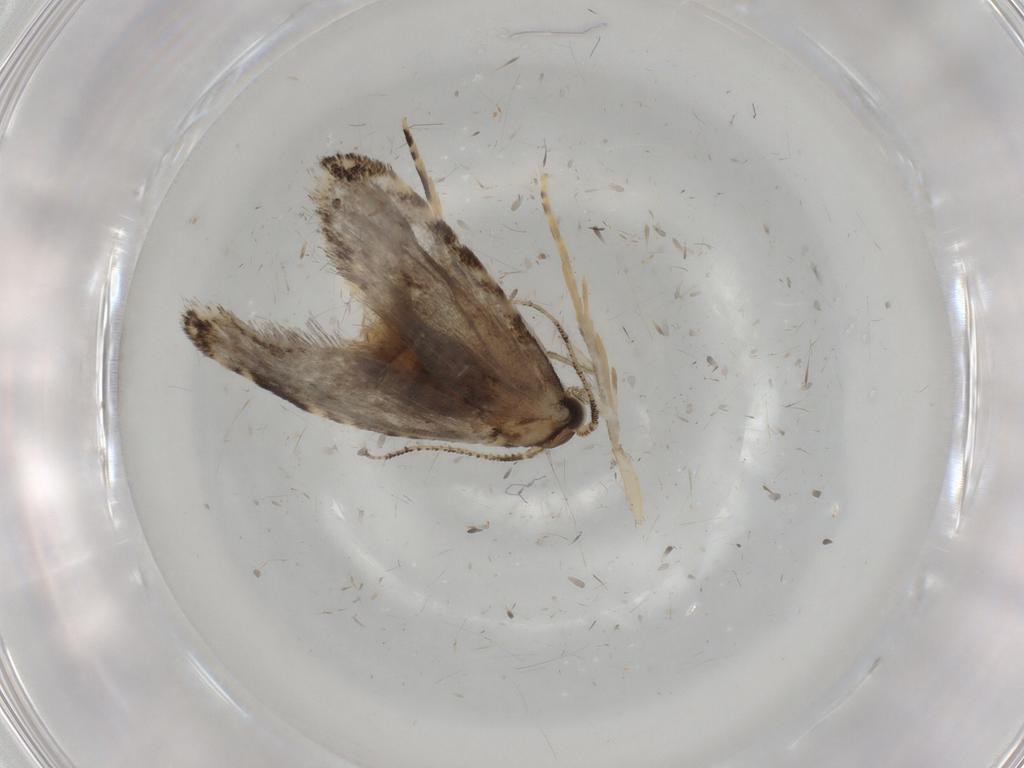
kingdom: Animalia
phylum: Arthropoda
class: Insecta
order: Lepidoptera
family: Tineidae
